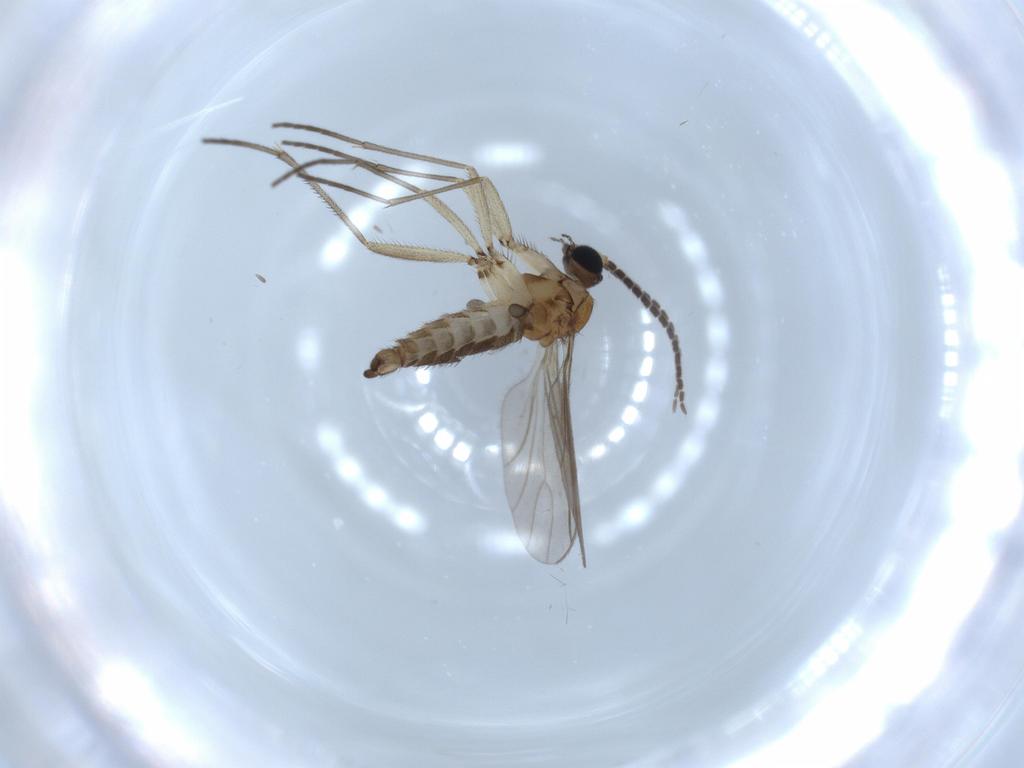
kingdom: Animalia
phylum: Arthropoda
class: Insecta
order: Diptera
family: Sciaridae
